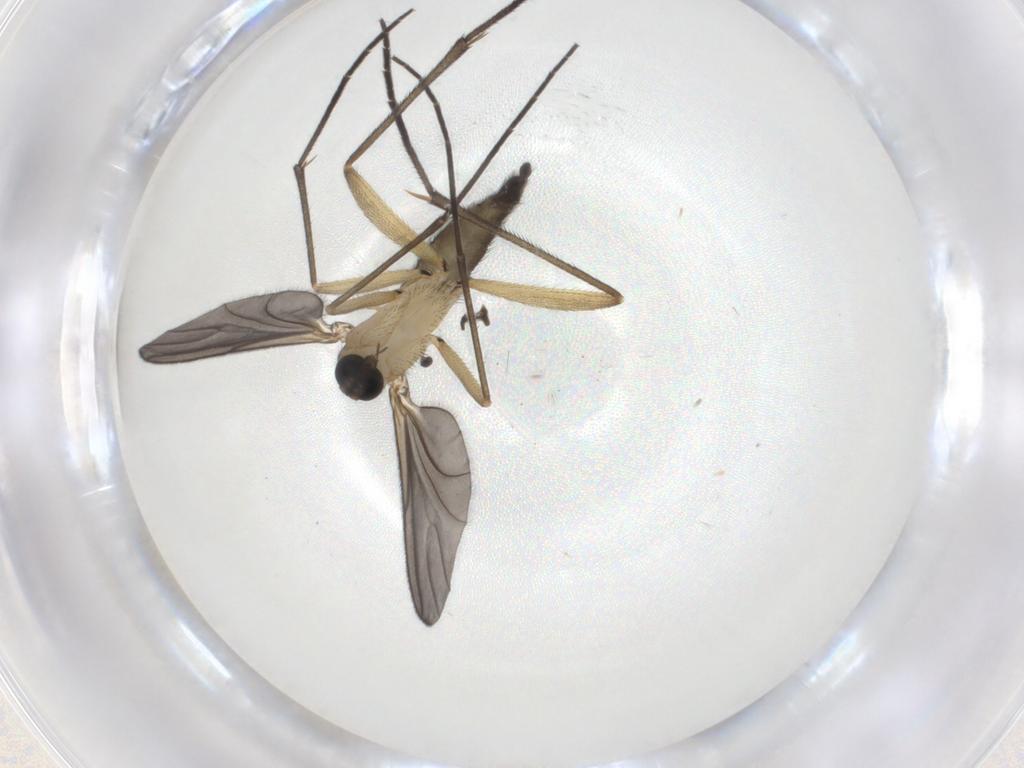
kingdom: Animalia
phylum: Arthropoda
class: Insecta
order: Diptera
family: Sciaridae
